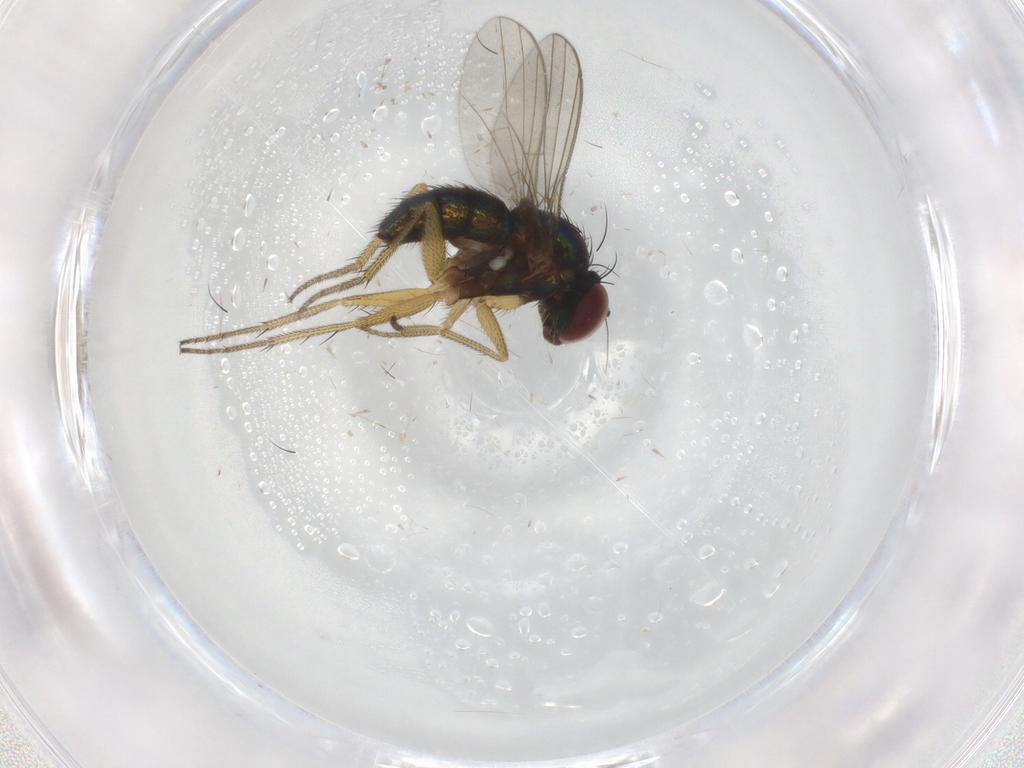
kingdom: Animalia
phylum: Arthropoda
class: Insecta
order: Diptera
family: Dolichopodidae
